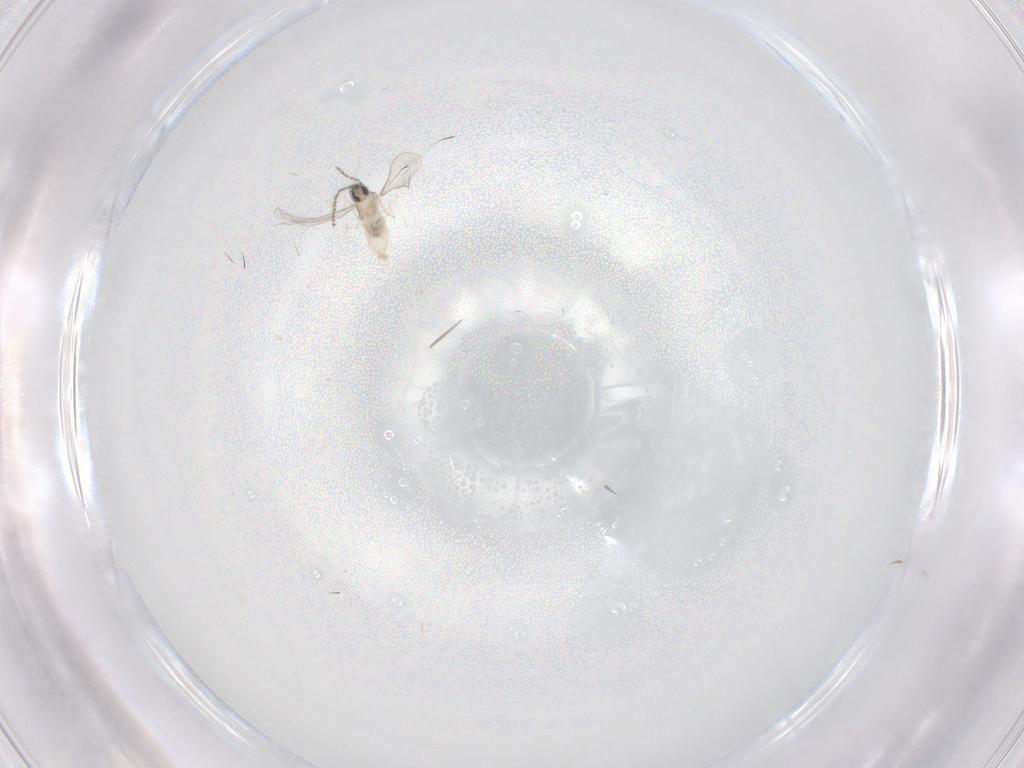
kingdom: Animalia
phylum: Arthropoda
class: Insecta
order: Diptera
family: Cecidomyiidae
